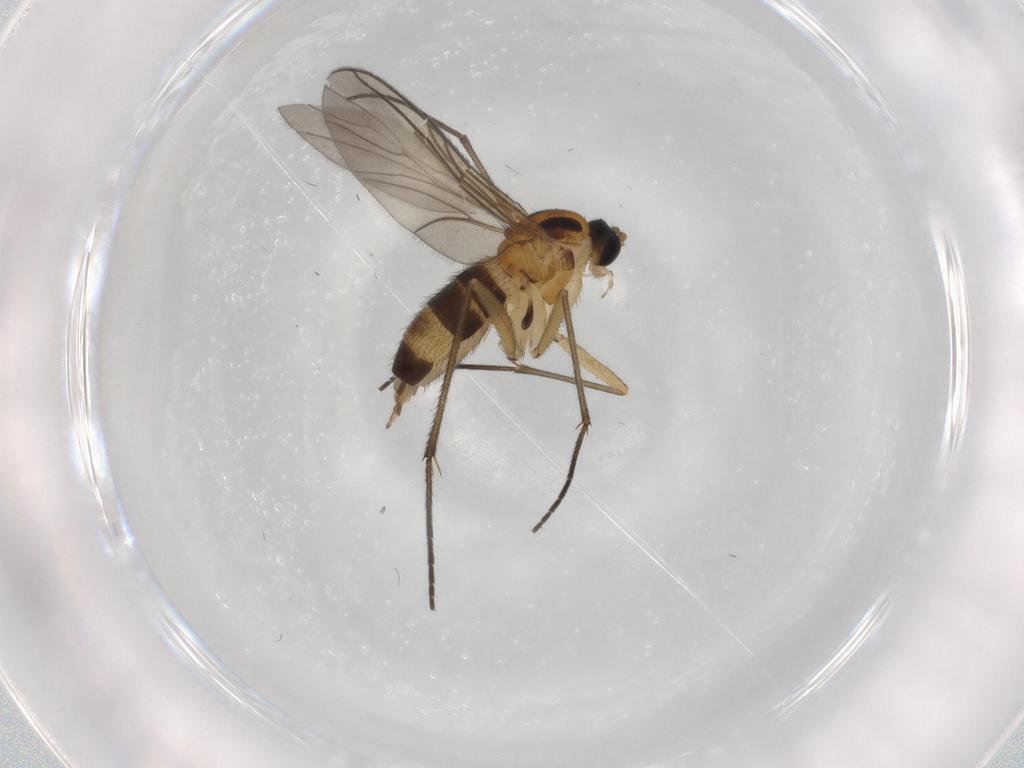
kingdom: Animalia
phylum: Arthropoda
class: Insecta
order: Diptera
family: Sciaridae
